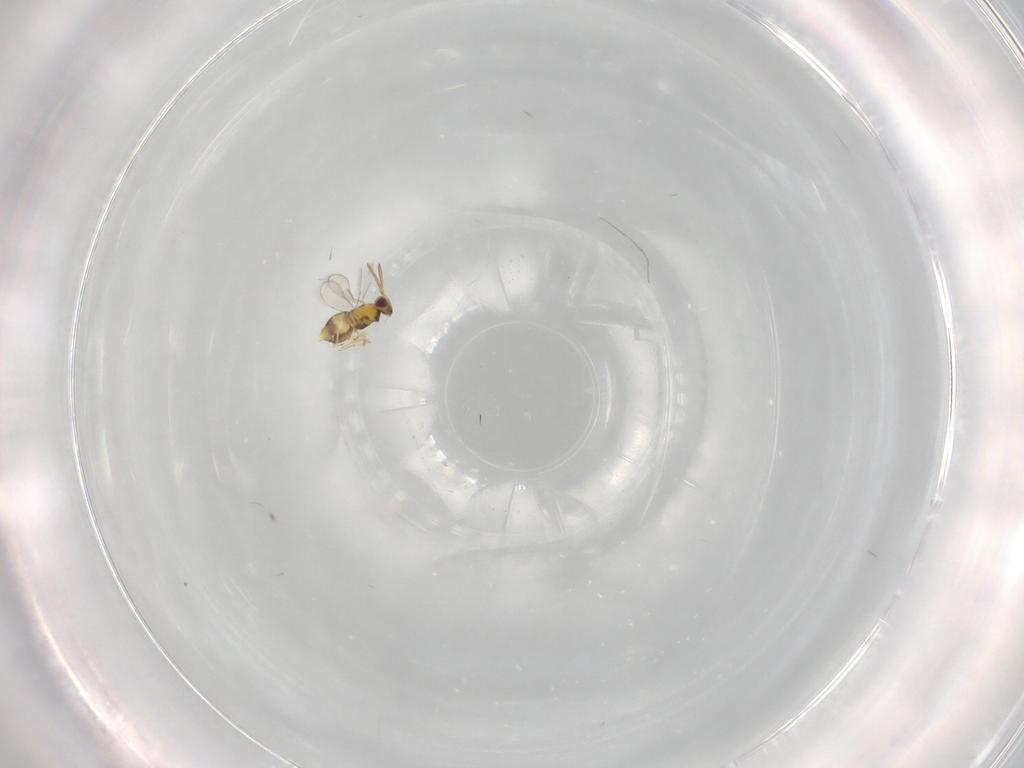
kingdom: Animalia
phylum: Arthropoda
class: Insecta
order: Hymenoptera
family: Aphelinidae
